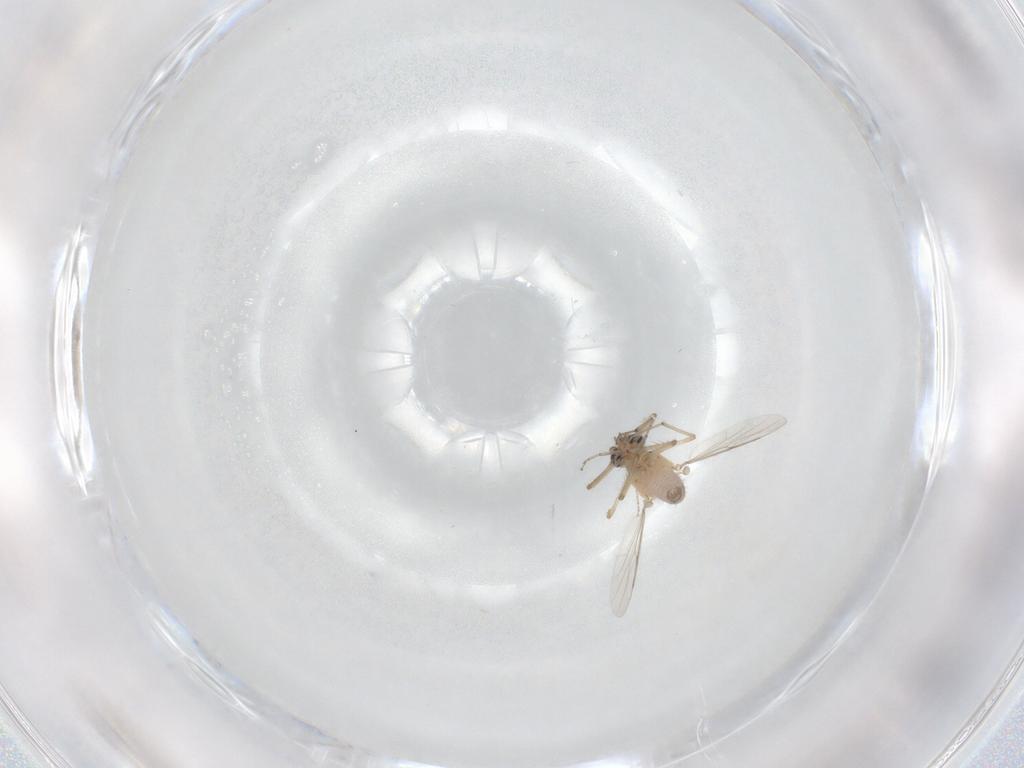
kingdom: Animalia
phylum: Arthropoda
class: Insecta
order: Diptera
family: Ceratopogonidae
